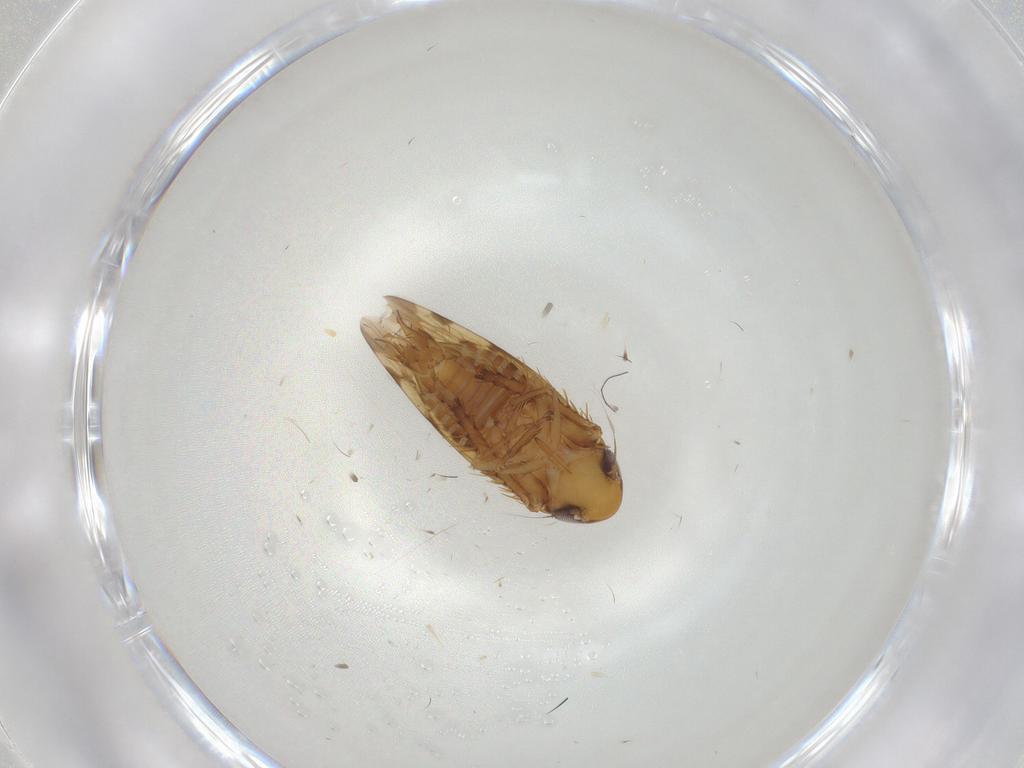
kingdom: Animalia
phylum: Arthropoda
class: Insecta
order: Hemiptera
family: Cicadellidae
